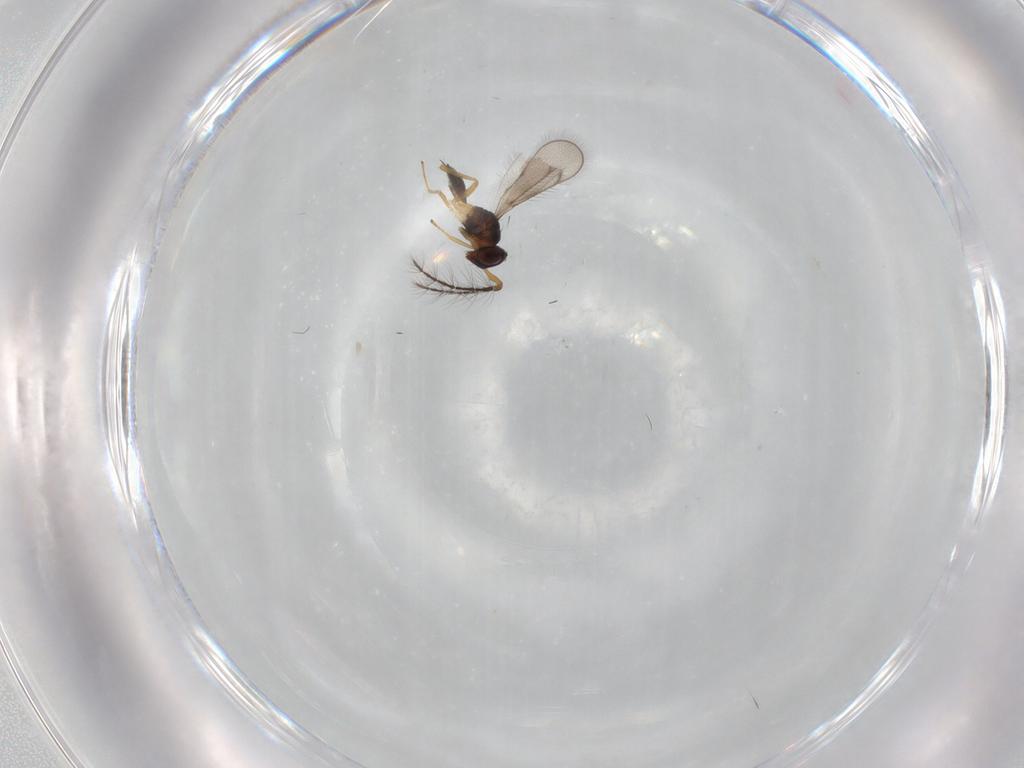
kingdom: Animalia
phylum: Arthropoda
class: Insecta
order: Hymenoptera
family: Eulophidae
